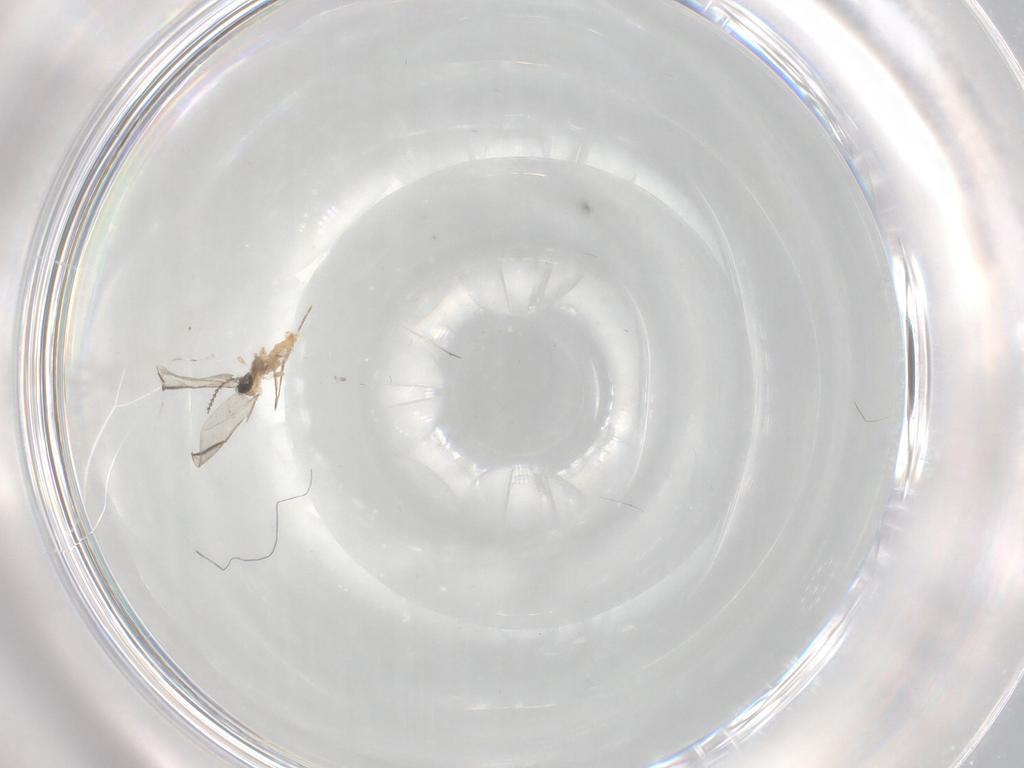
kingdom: Animalia
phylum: Arthropoda
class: Insecta
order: Diptera
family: Cecidomyiidae
